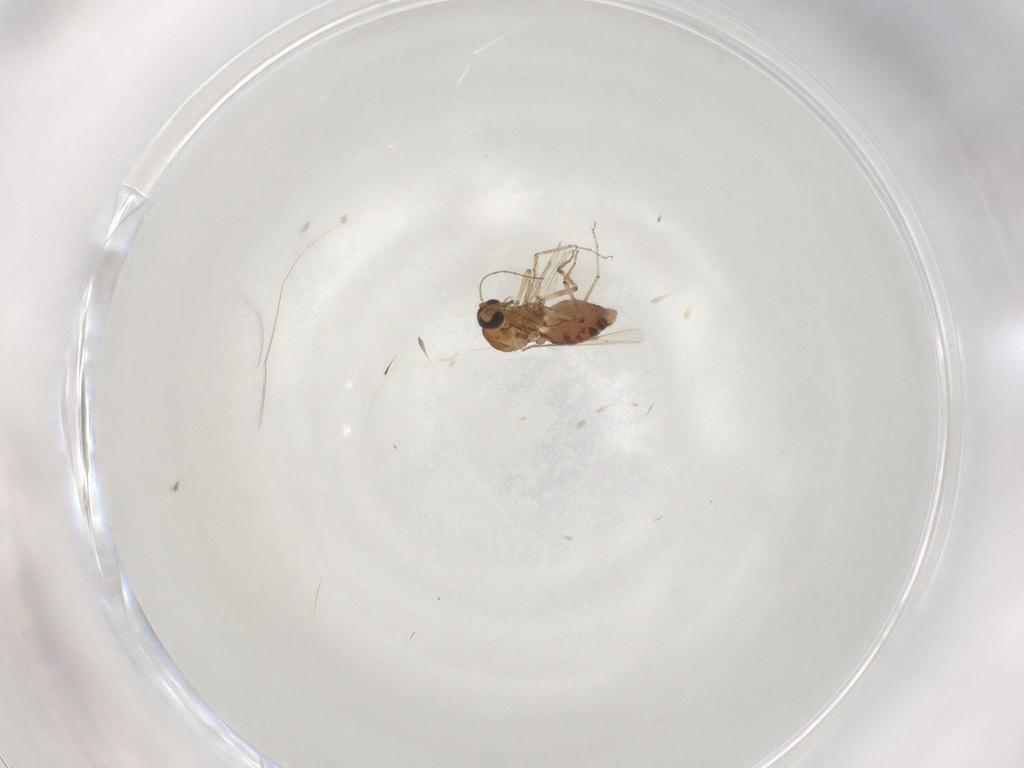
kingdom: Animalia
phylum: Arthropoda
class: Insecta
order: Diptera
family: Ceratopogonidae
